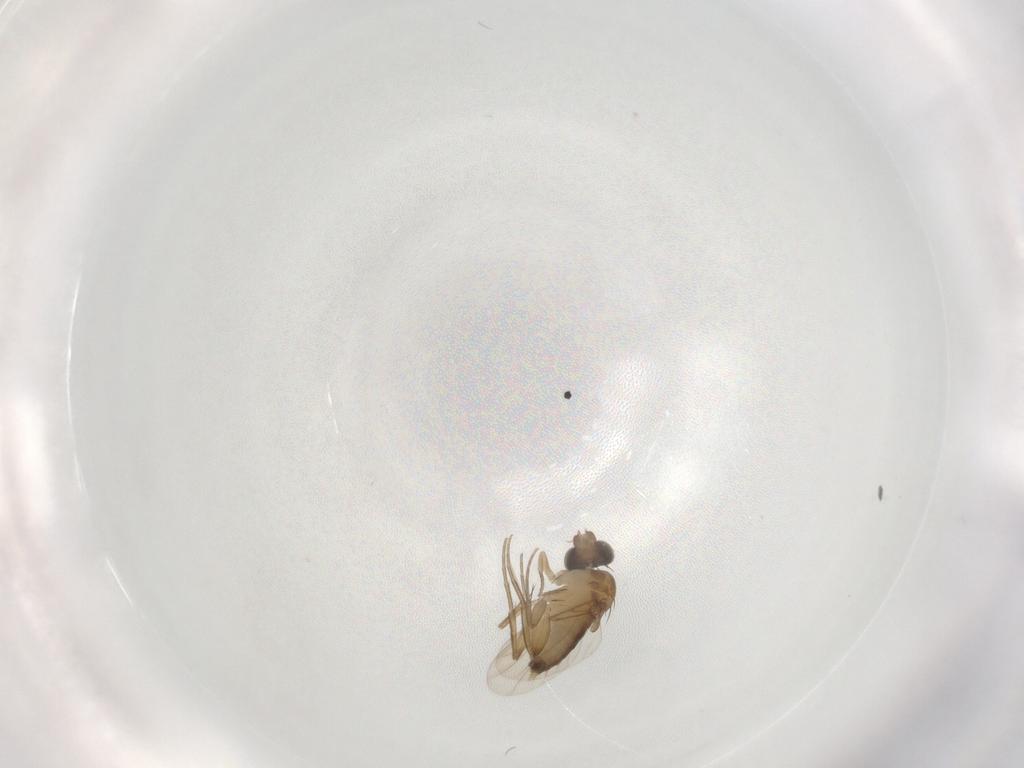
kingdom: Animalia
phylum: Arthropoda
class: Insecta
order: Diptera
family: Phoridae
